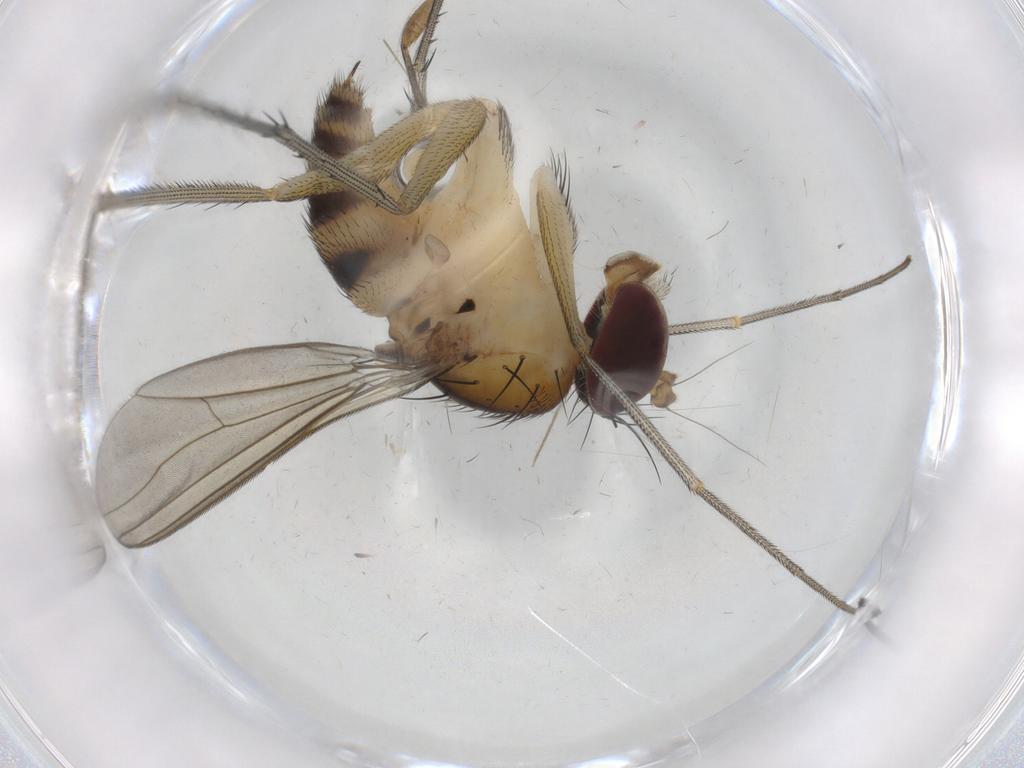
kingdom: Animalia
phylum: Arthropoda
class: Insecta
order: Diptera
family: Mycetophilidae
